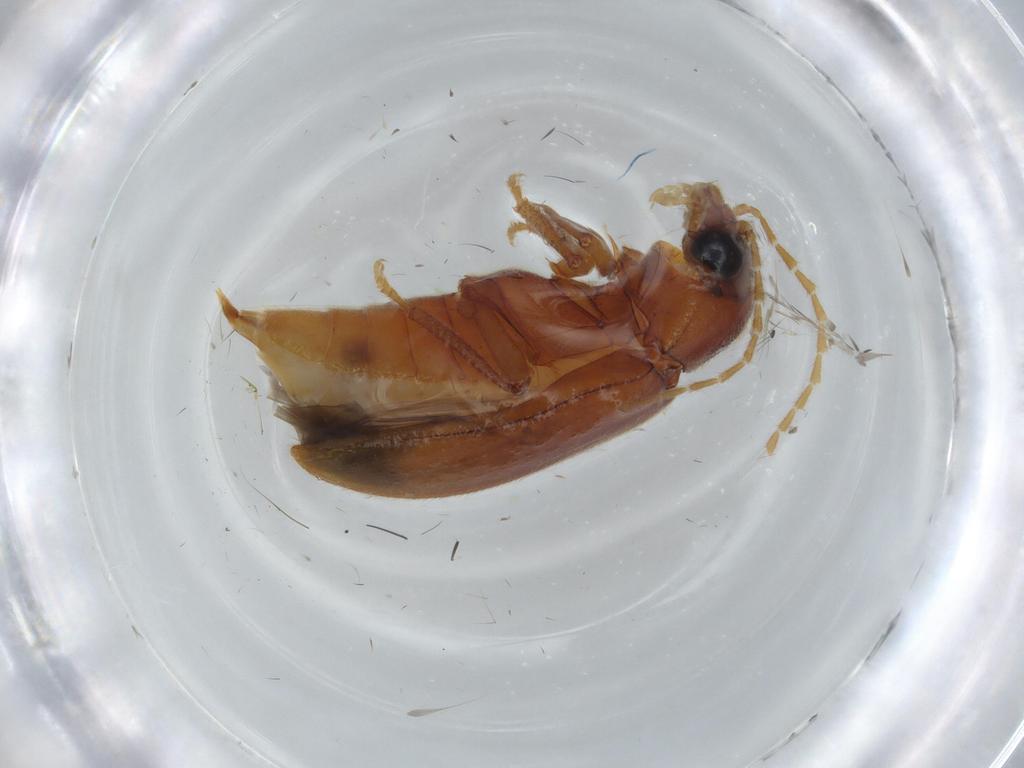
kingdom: Animalia
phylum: Arthropoda
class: Insecta
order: Coleoptera
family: Ptilodactylidae
